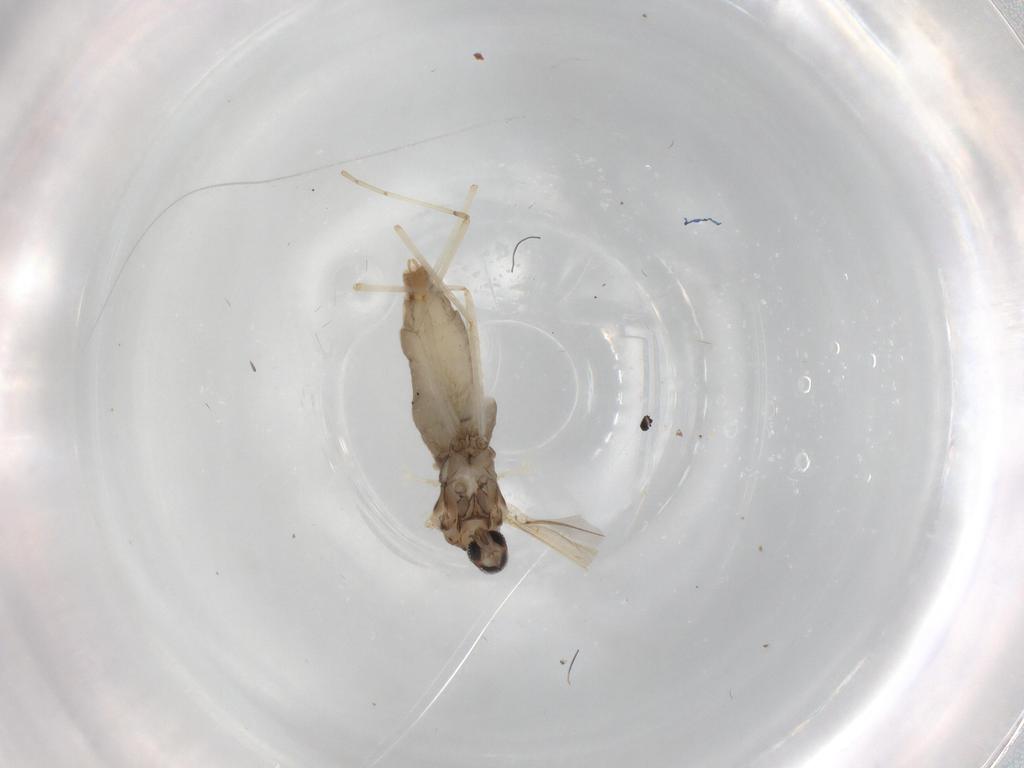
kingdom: Animalia
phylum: Arthropoda
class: Insecta
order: Diptera
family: Cecidomyiidae
